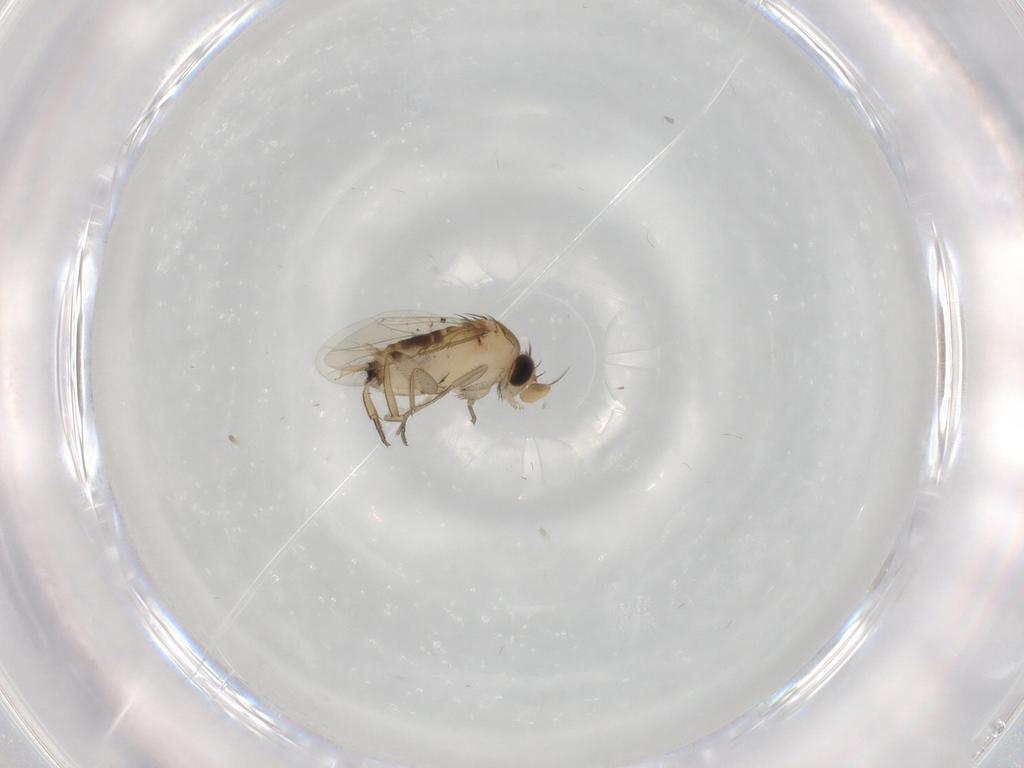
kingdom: Animalia
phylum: Arthropoda
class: Insecta
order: Diptera
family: Phoridae
